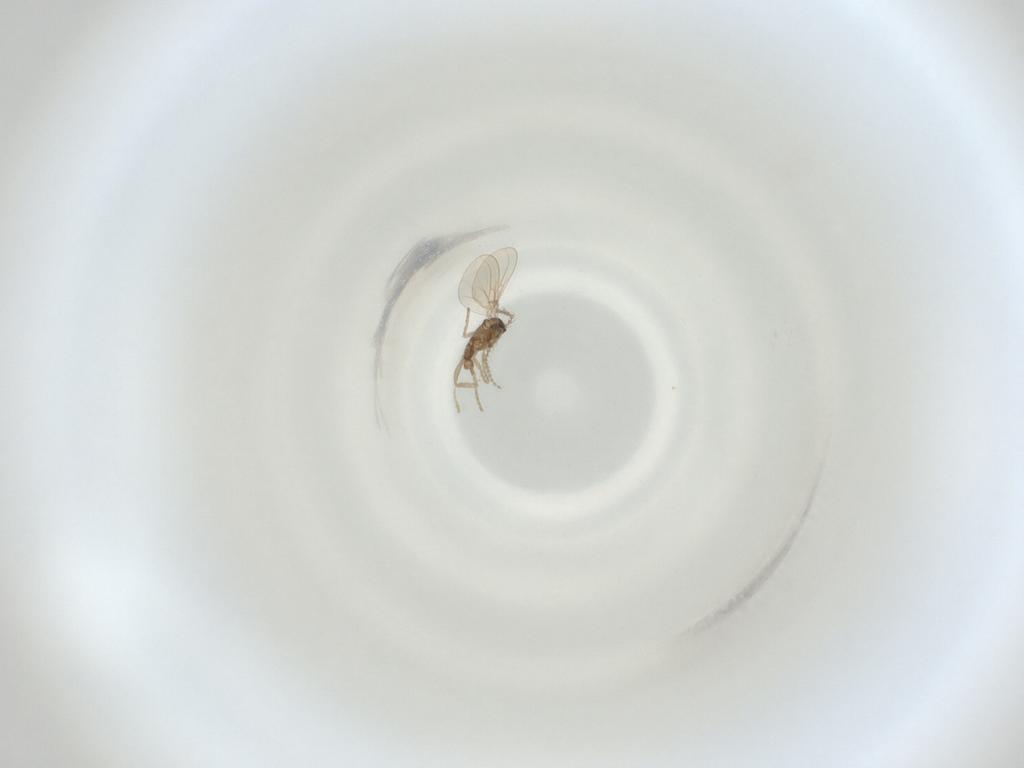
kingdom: Animalia
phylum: Arthropoda
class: Insecta
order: Diptera
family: Cecidomyiidae
